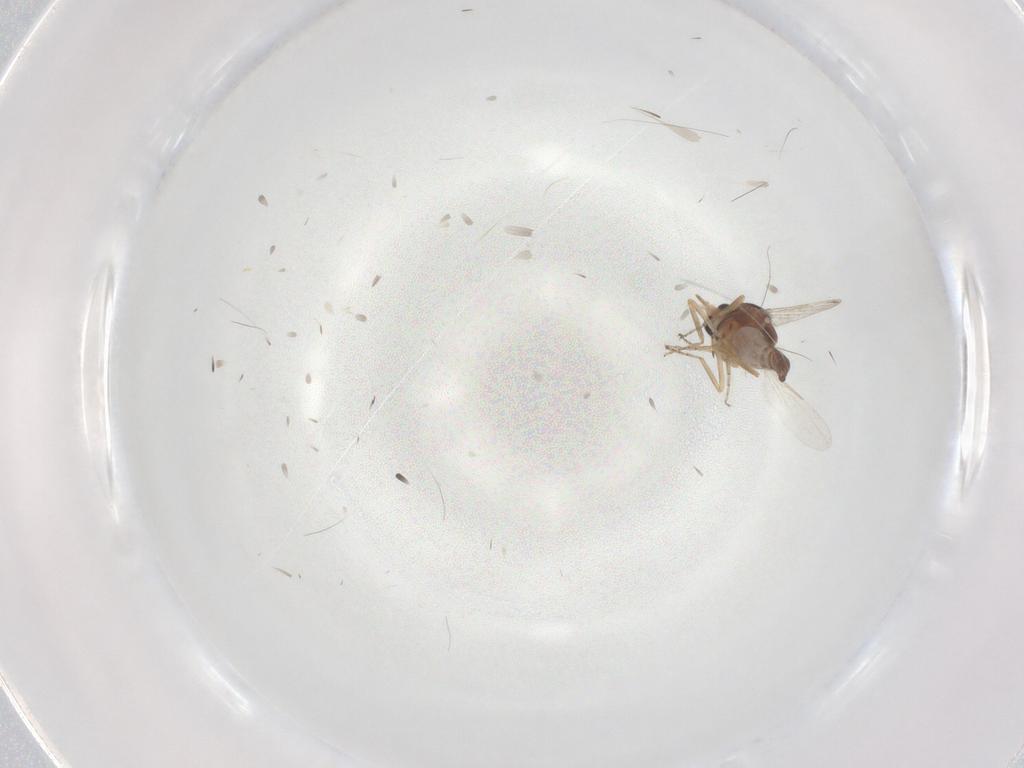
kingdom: Animalia
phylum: Arthropoda
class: Insecta
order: Diptera
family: Ceratopogonidae
